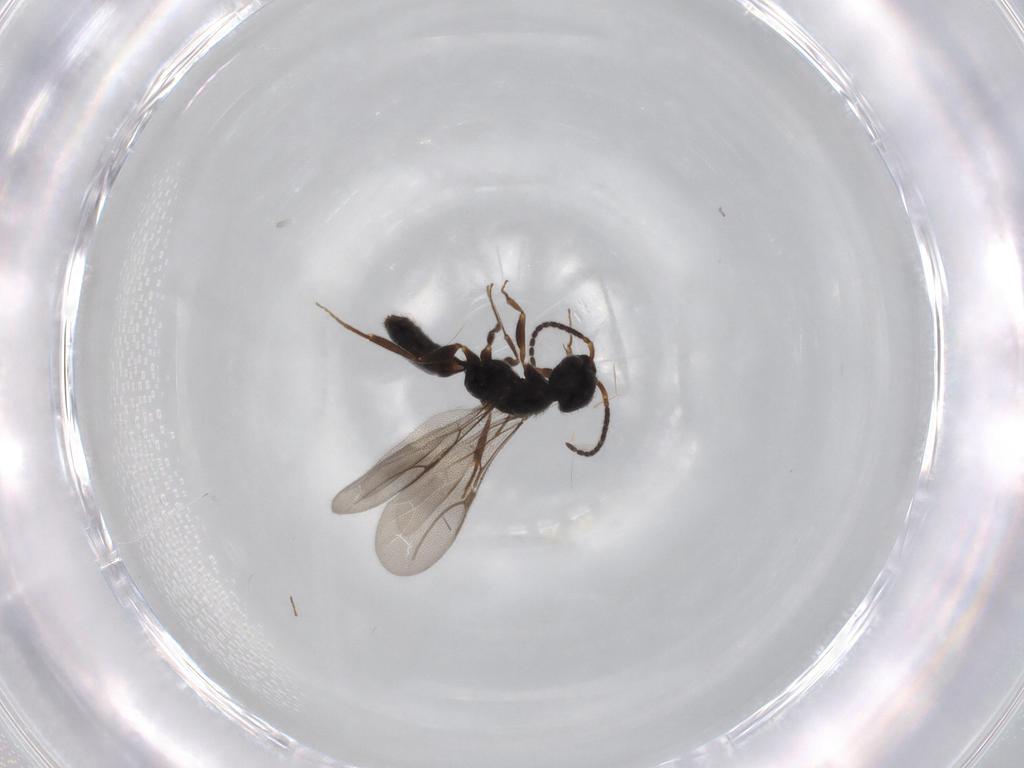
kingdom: Animalia
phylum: Arthropoda
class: Insecta
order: Hymenoptera
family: Bethylidae
